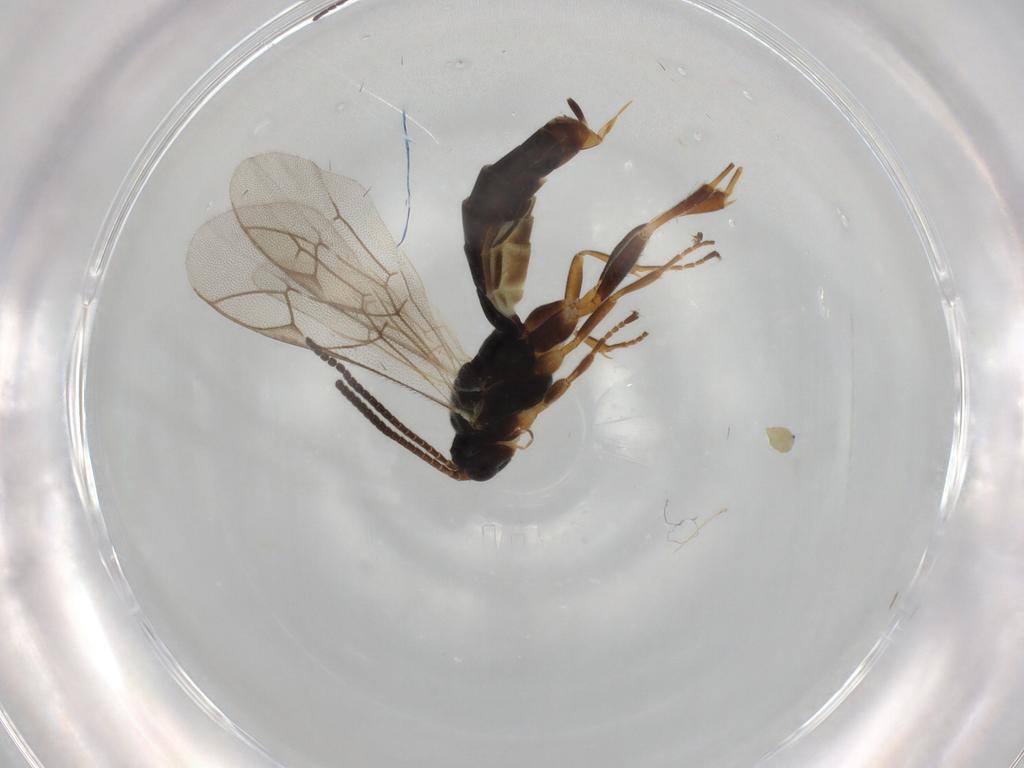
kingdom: Animalia
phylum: Arthropoda
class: Insecta
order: Hymenoptera
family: Ichneumonidae
